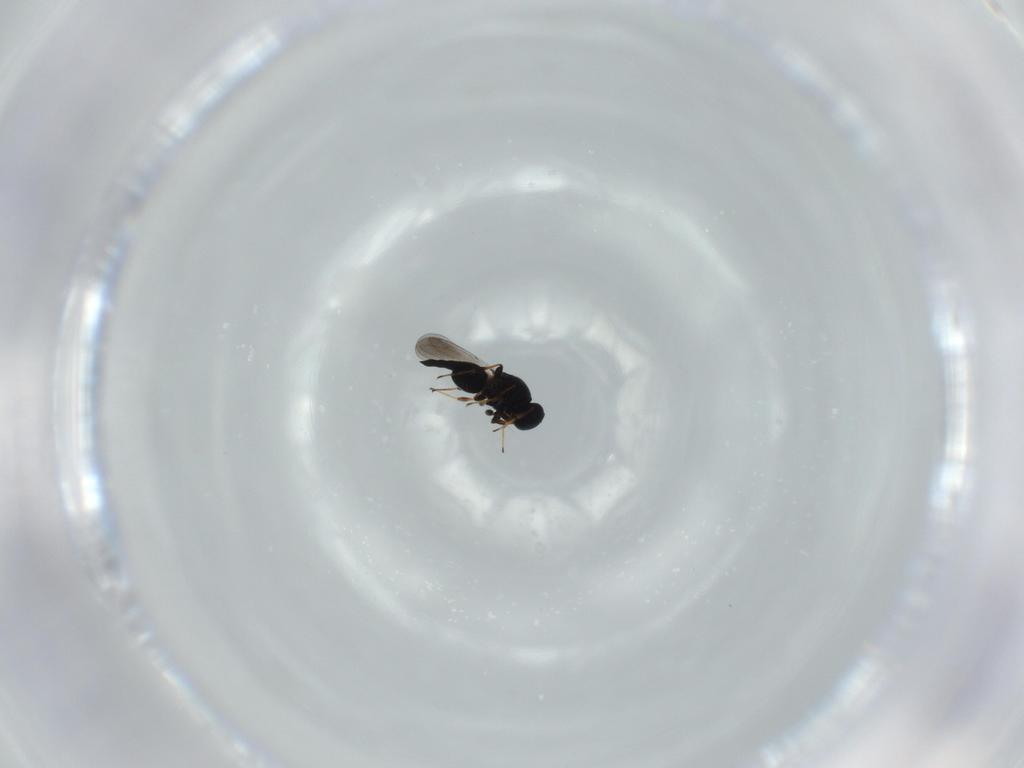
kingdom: Animalia
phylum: Arthropoda
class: Insecta
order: Hymenoptera
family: Platygastridae
